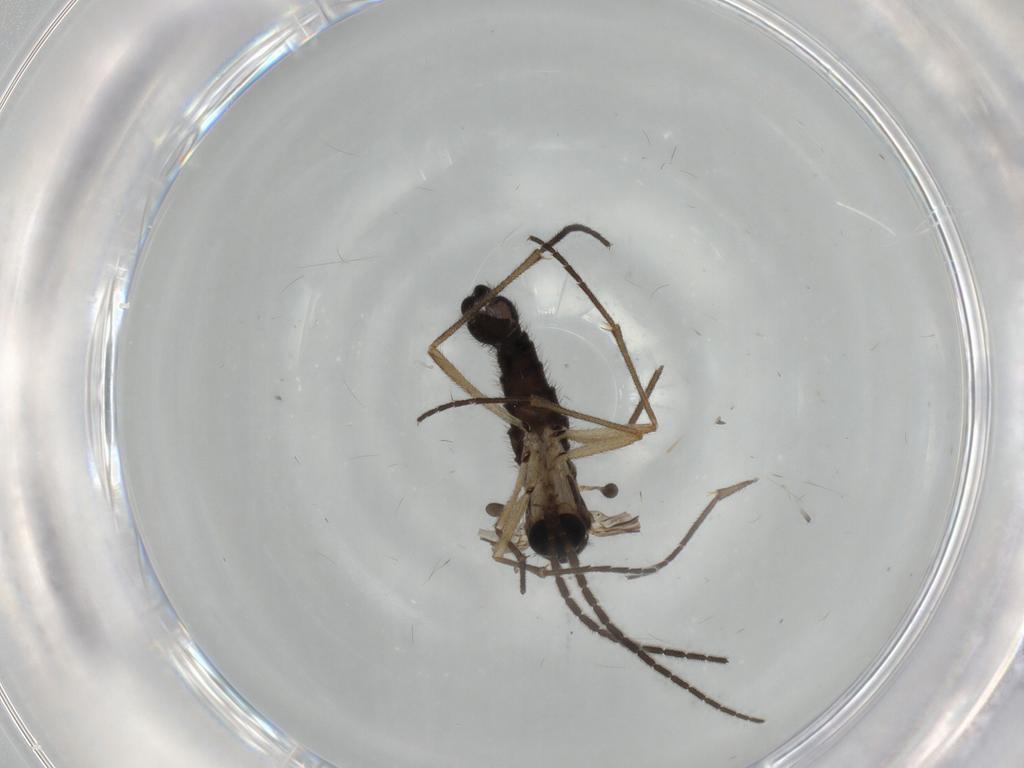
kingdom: Animalia
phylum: Arthropoda
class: Insecta
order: Diptera
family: Sciaridae
